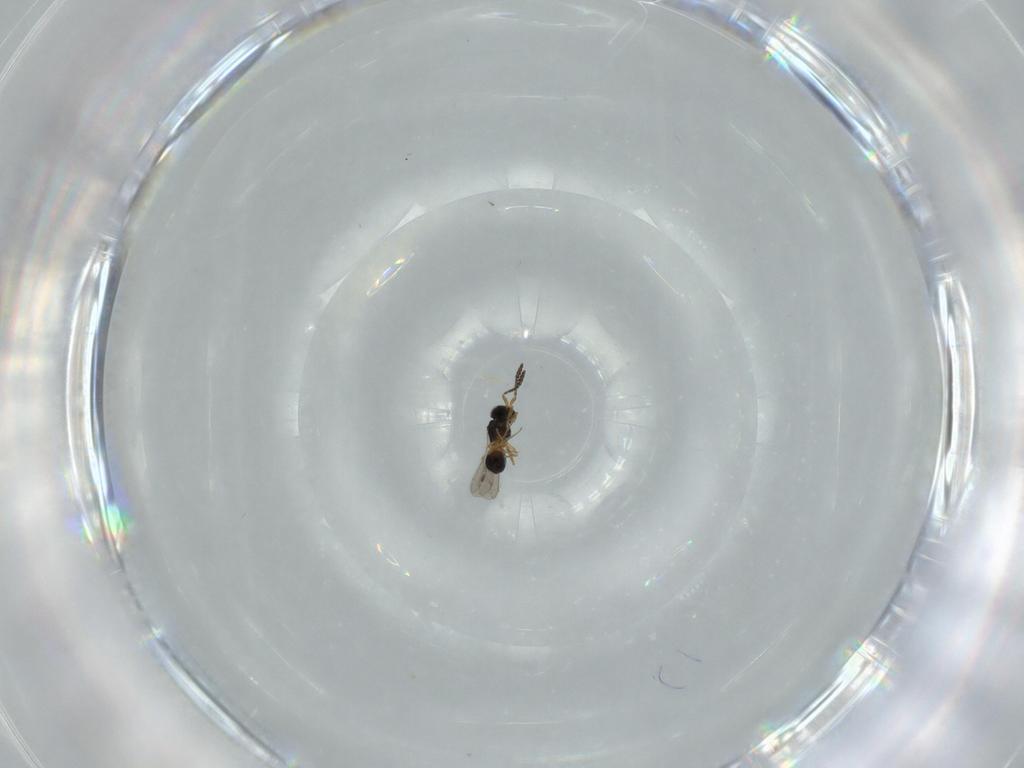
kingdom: Animalia
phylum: Arthropoda
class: Insecta
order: Hymenoptera
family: Scelionidae
